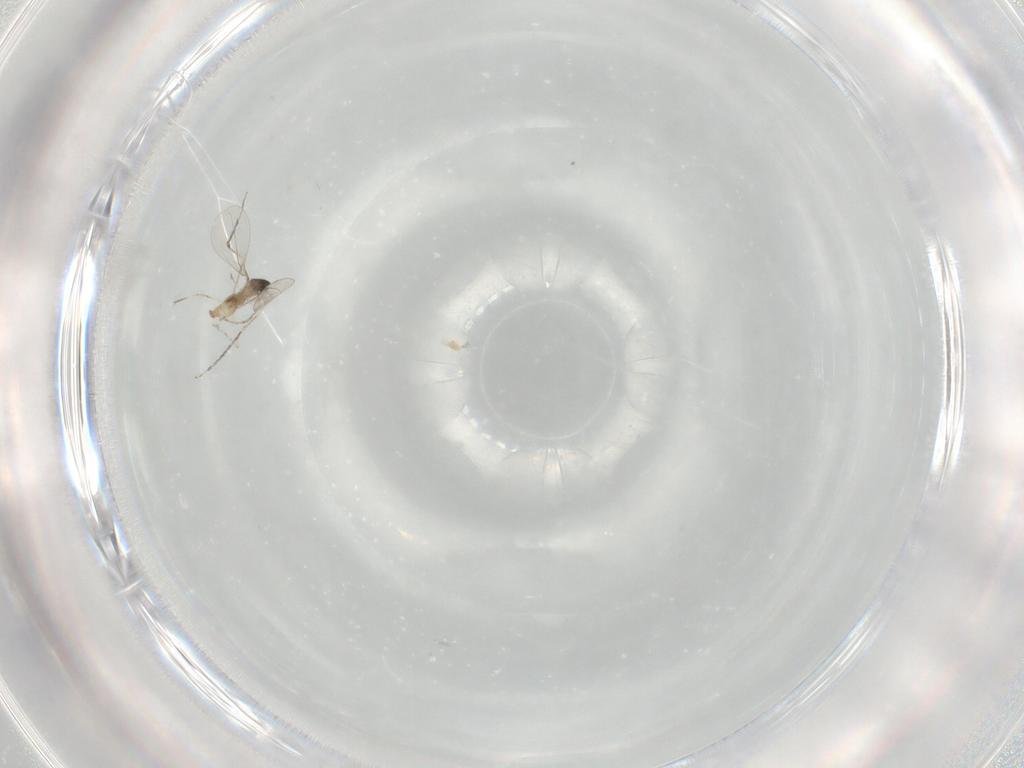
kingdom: Animalia
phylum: Arthropoda
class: Insecta
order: Diptera
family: Cecidomyiidae
